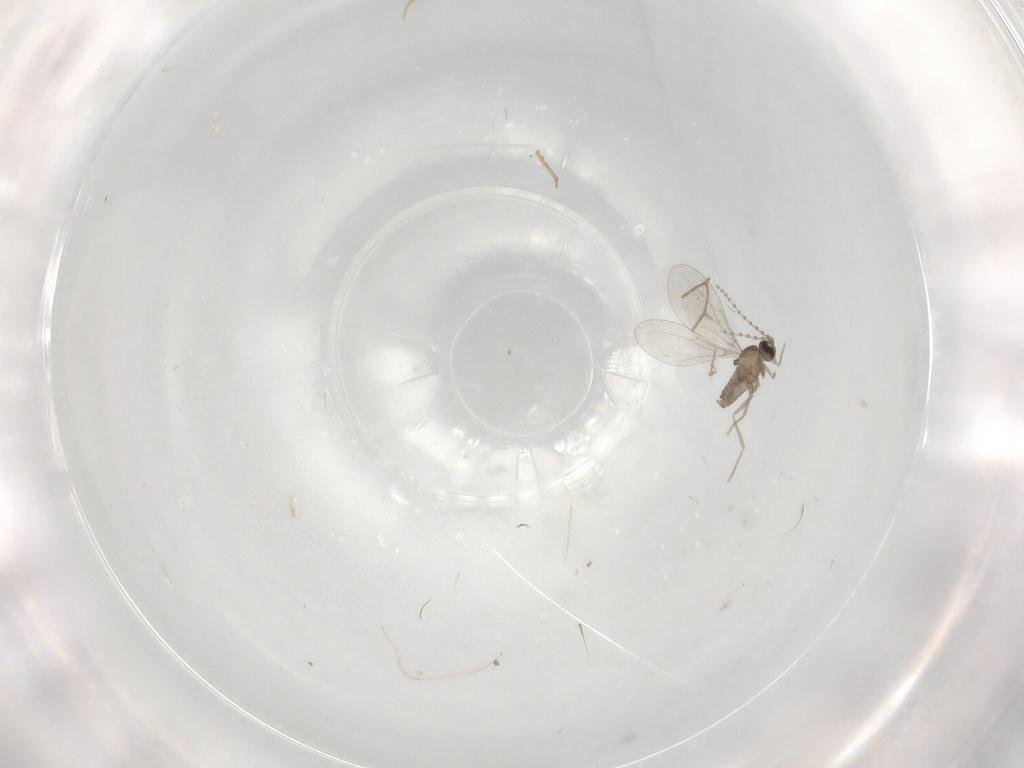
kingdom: Animalia
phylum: Arthropoda
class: Insecta
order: Diptera
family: Cecidomyiidae
